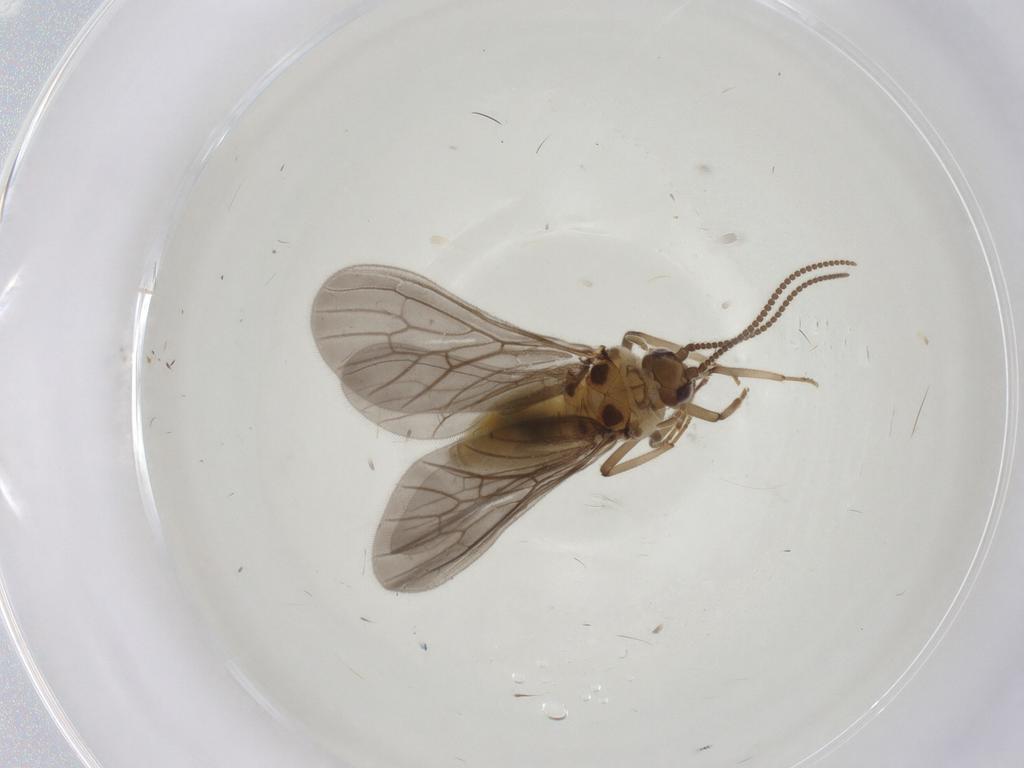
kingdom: Animalia
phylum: Arthropoda
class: Insecta
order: Neuroptera
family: Coniopterygidae
